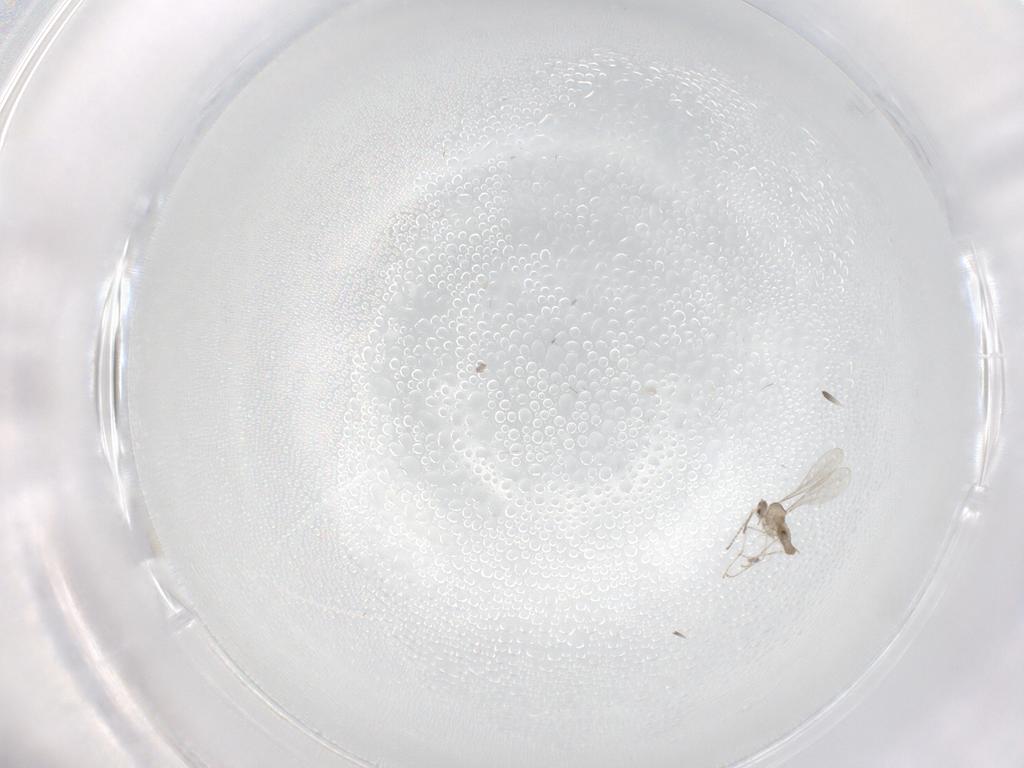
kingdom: Animalia
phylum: Arthropoda
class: Insecta
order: Diptera
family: Cecidomyiidae
